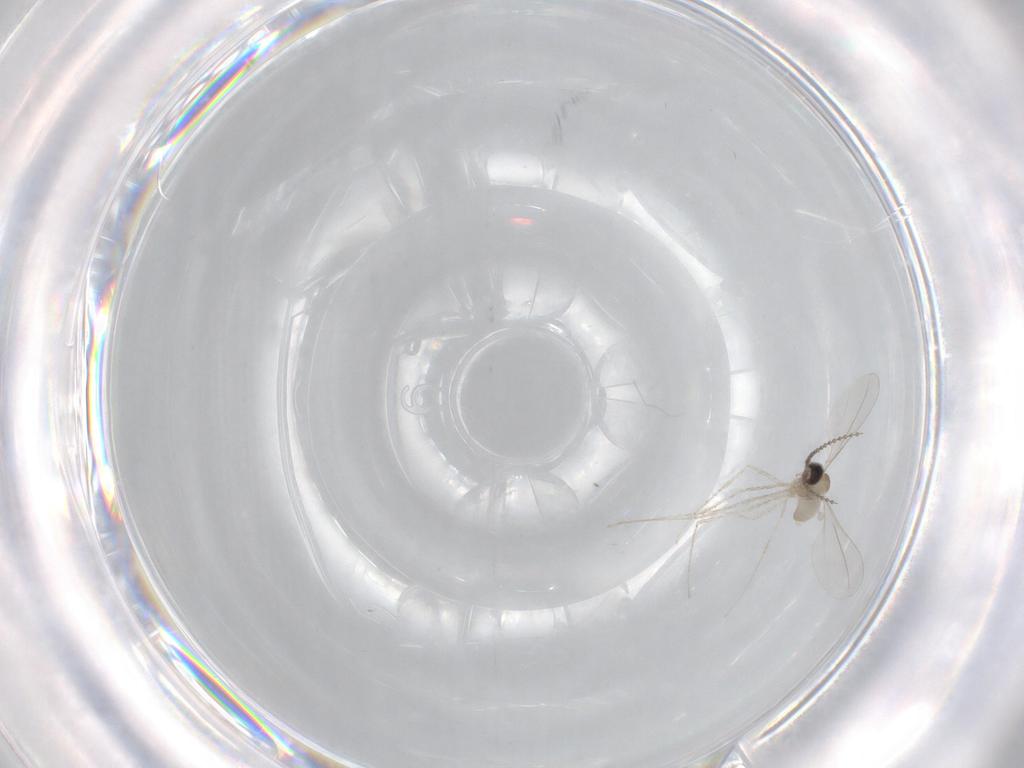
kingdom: Animalia
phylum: Arthropoda
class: Insecta
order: Diptera
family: Cecidomyiidae
